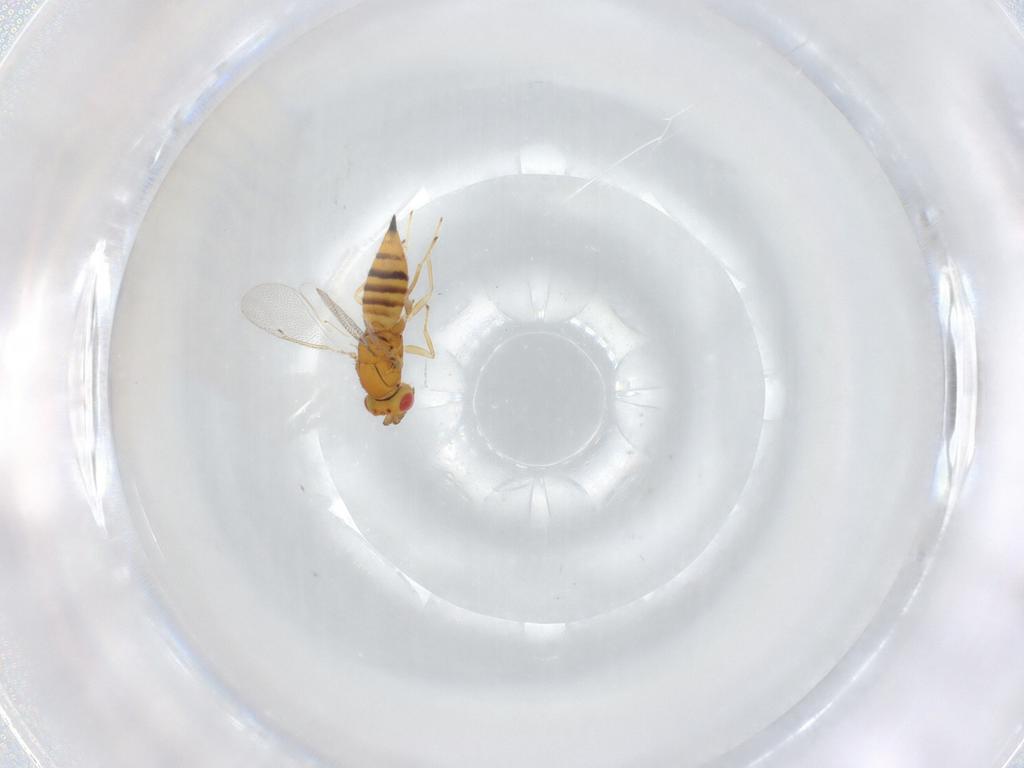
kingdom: Animalia
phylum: Arthropoda
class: Insecta
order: Hymenoptera
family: Eulophidae
